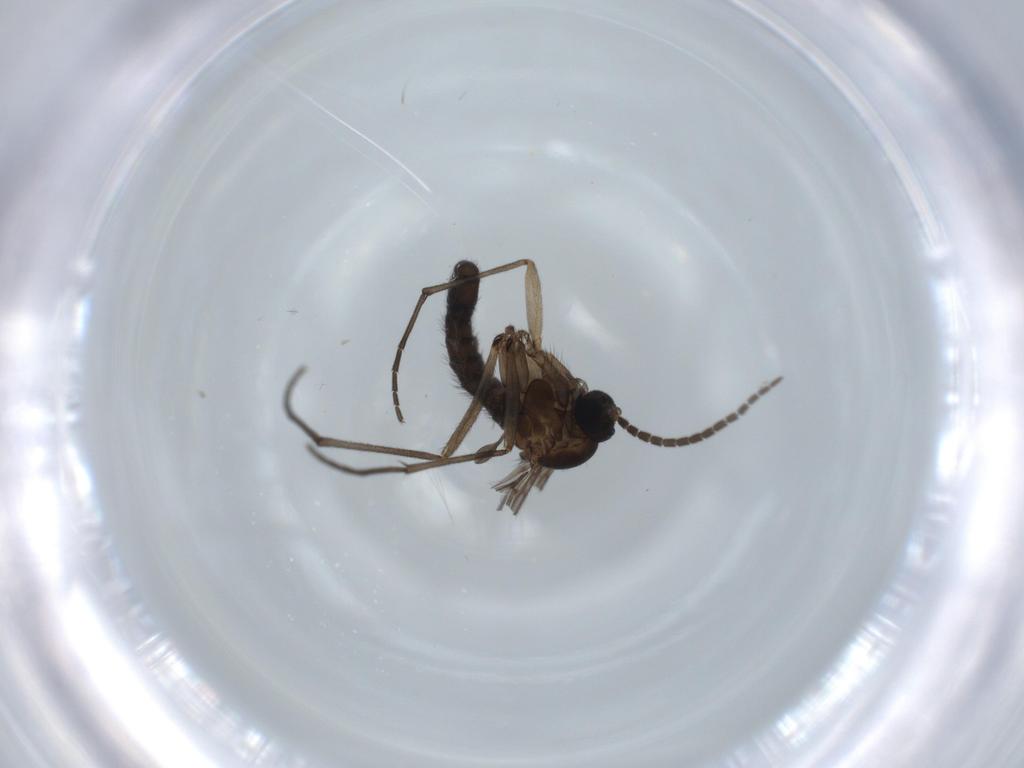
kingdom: Animalia
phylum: Arthropoda
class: Insecta
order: Diptera
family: Sciaridae
